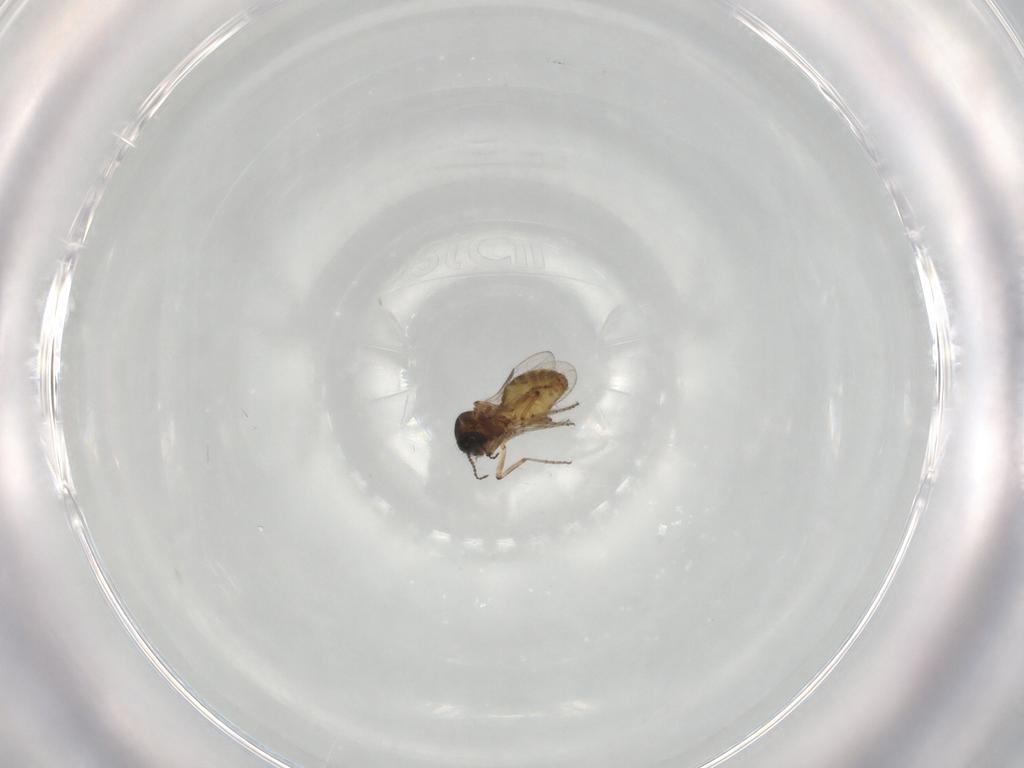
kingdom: Animalia
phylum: Arthropoda
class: Insecta
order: Diptera
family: Ceratopogonidae
